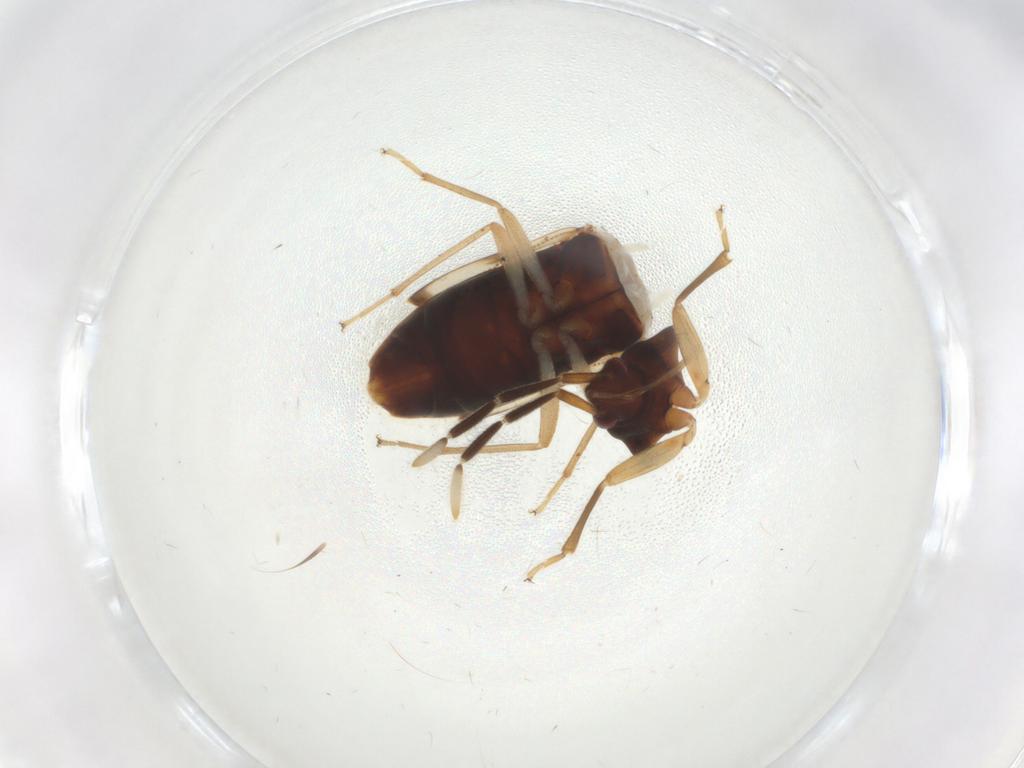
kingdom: Animalia
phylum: Arthropoda
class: Insecta
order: Hemiptera
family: Rhyparochromidae
